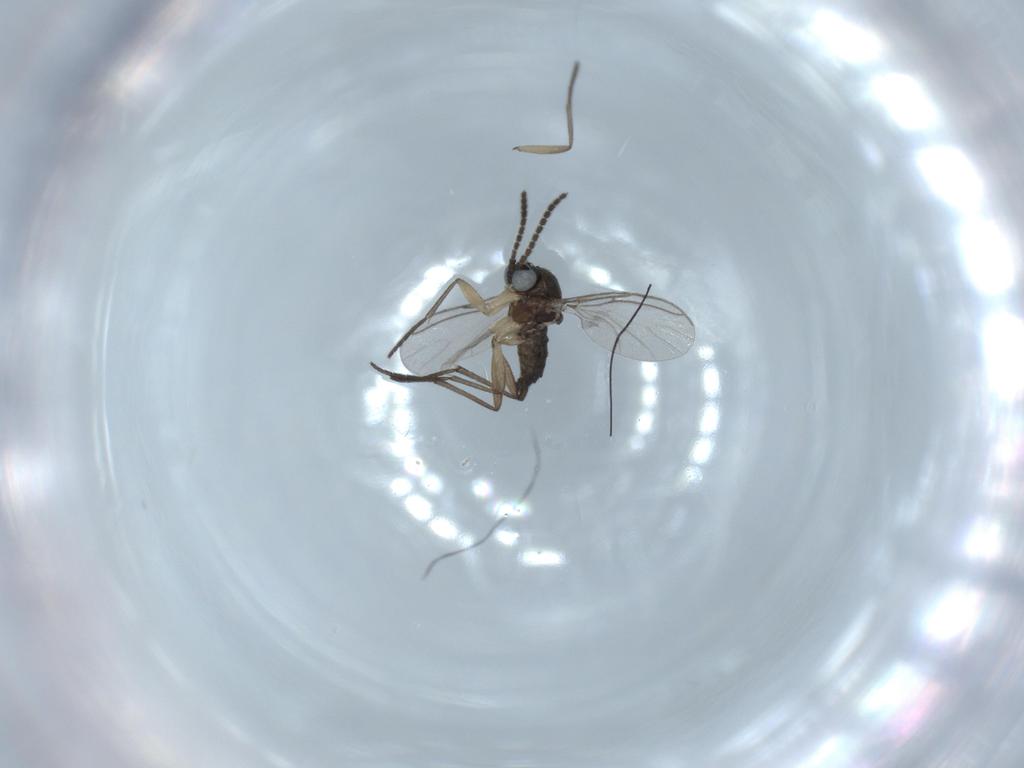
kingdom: Animalia
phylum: Arthropoda
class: Insecta
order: Diptera
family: Sciaridae
